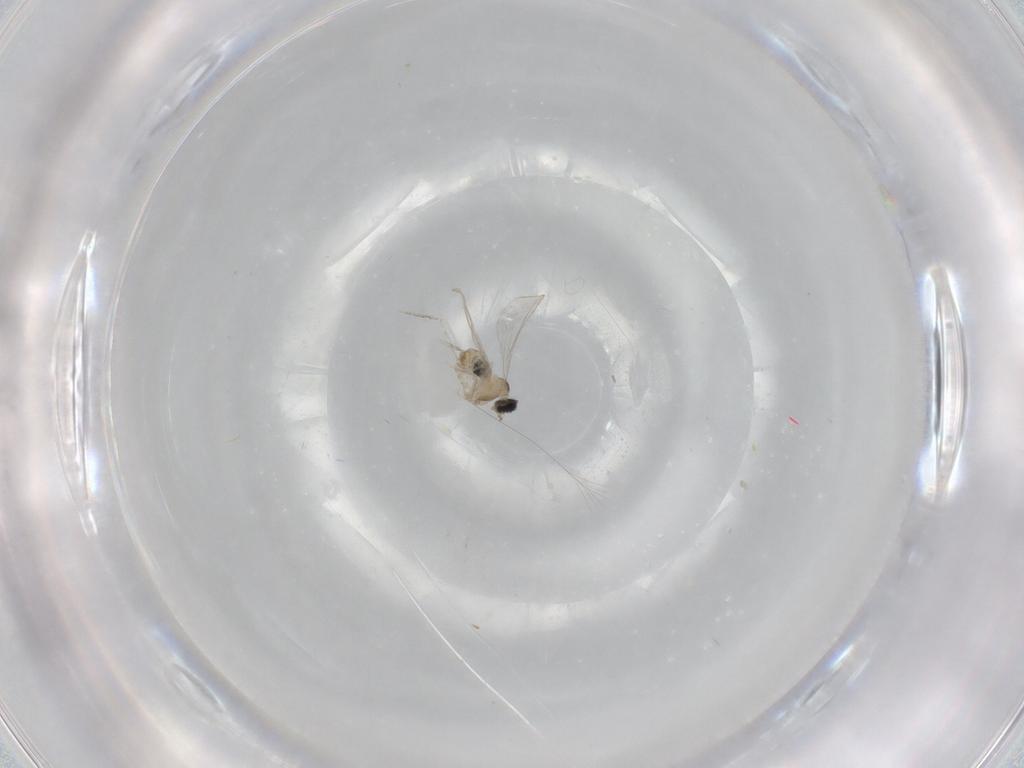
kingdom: Animalia
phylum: Arthropoda
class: Insecta
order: Diptera
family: Cecidomyiidae
